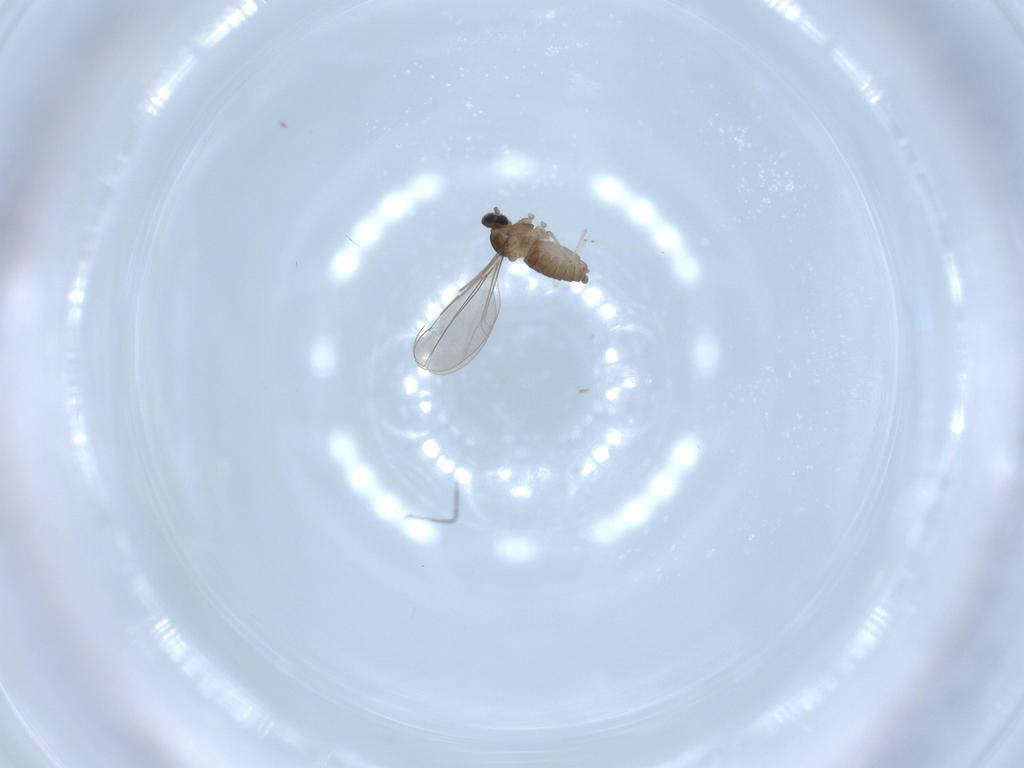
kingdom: Animalia
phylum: Arthropoda
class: Insecta
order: Diptera
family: Cecidomyiidae
